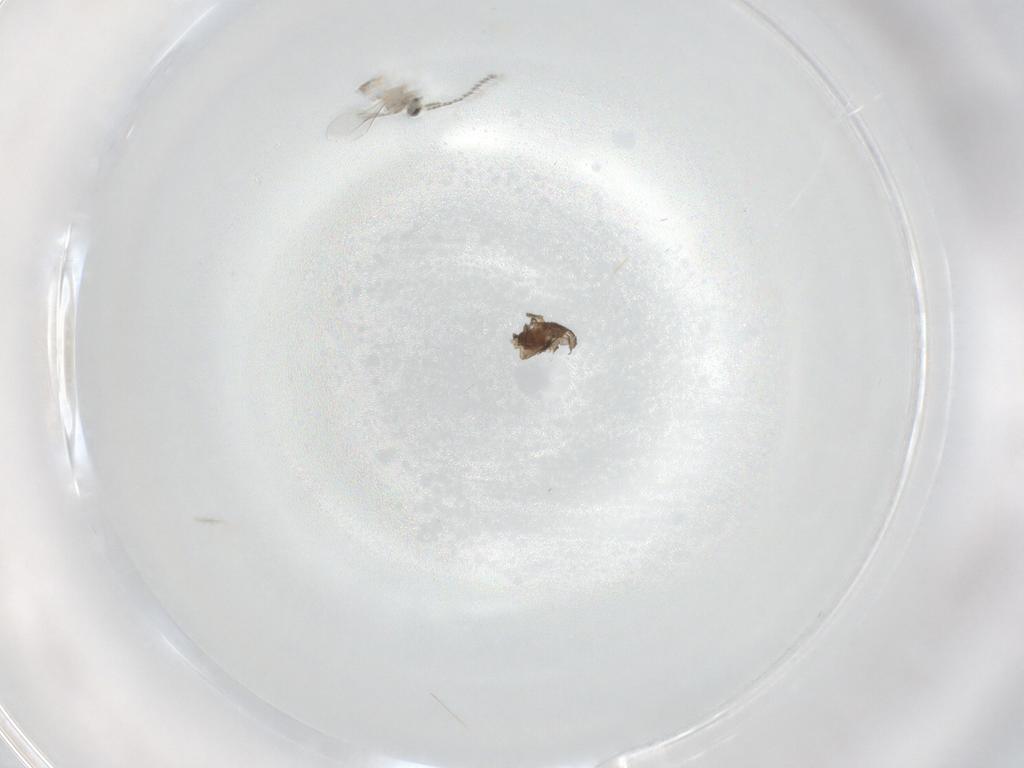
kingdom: Animalia
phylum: Arthropoda
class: Insecta
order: Diptera
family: Cecidomyiidae
